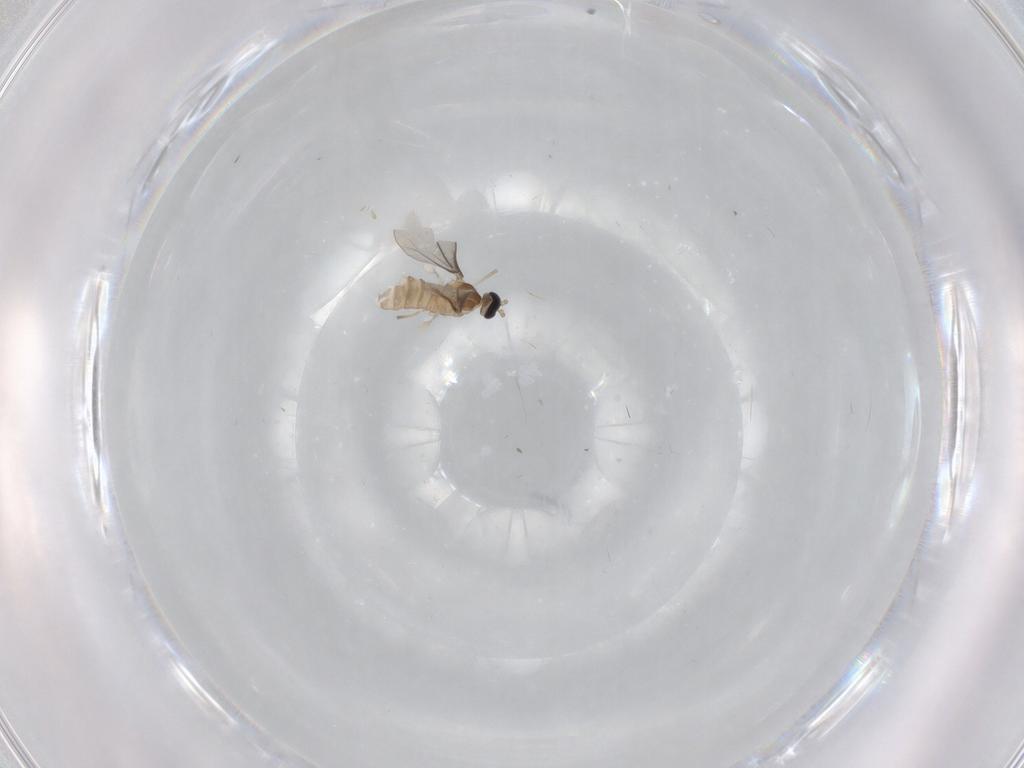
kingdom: Animalia
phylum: Arthropoda
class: Insecta
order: Diptera
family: Cecidomyiidae
